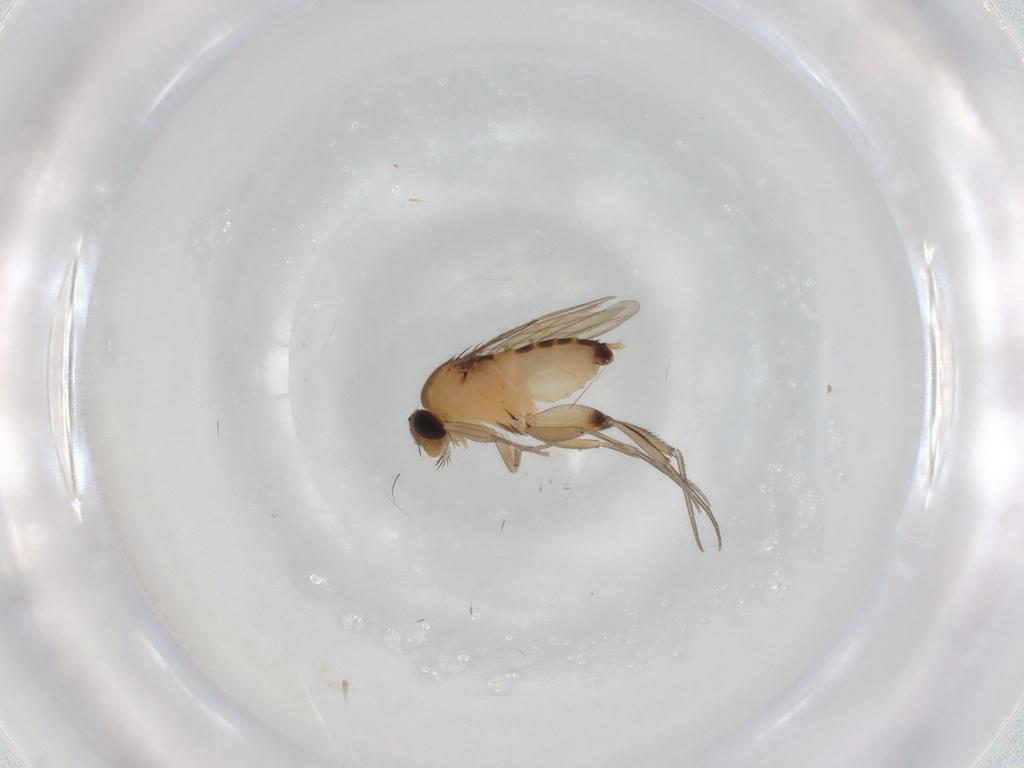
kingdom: Animalia
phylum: Arthropoda
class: Insecta
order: Diptera
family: Phoridae
